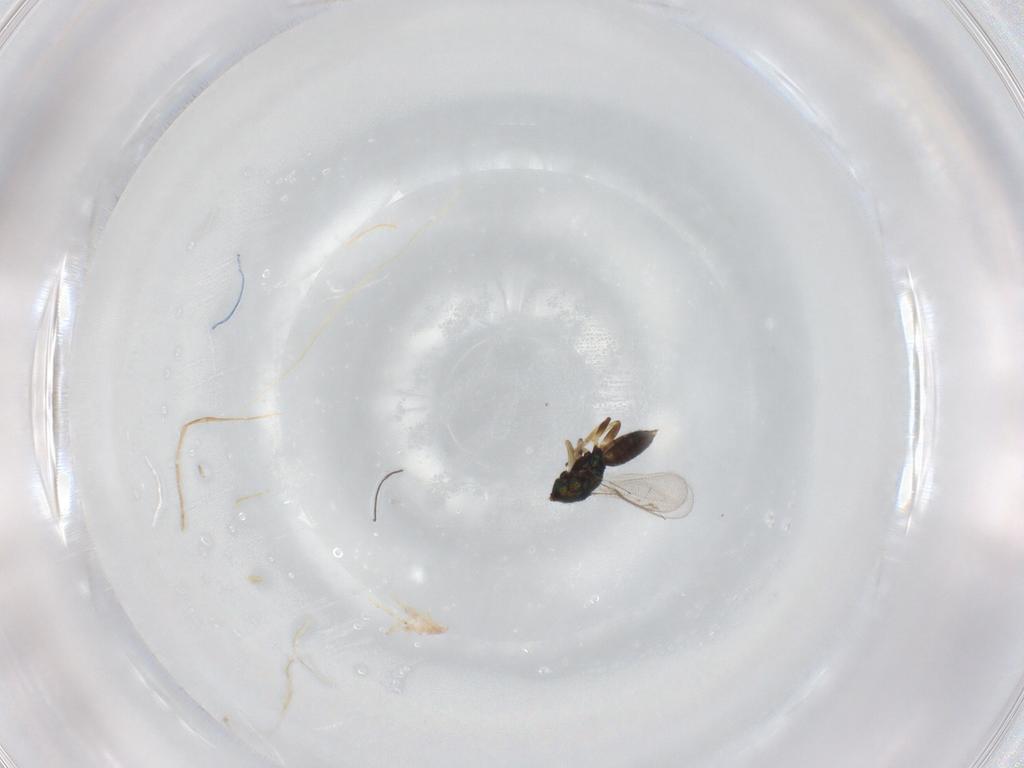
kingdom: Animalia
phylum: Arthropoda
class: Insecta
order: Hymenoptera
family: Eupelmidae
